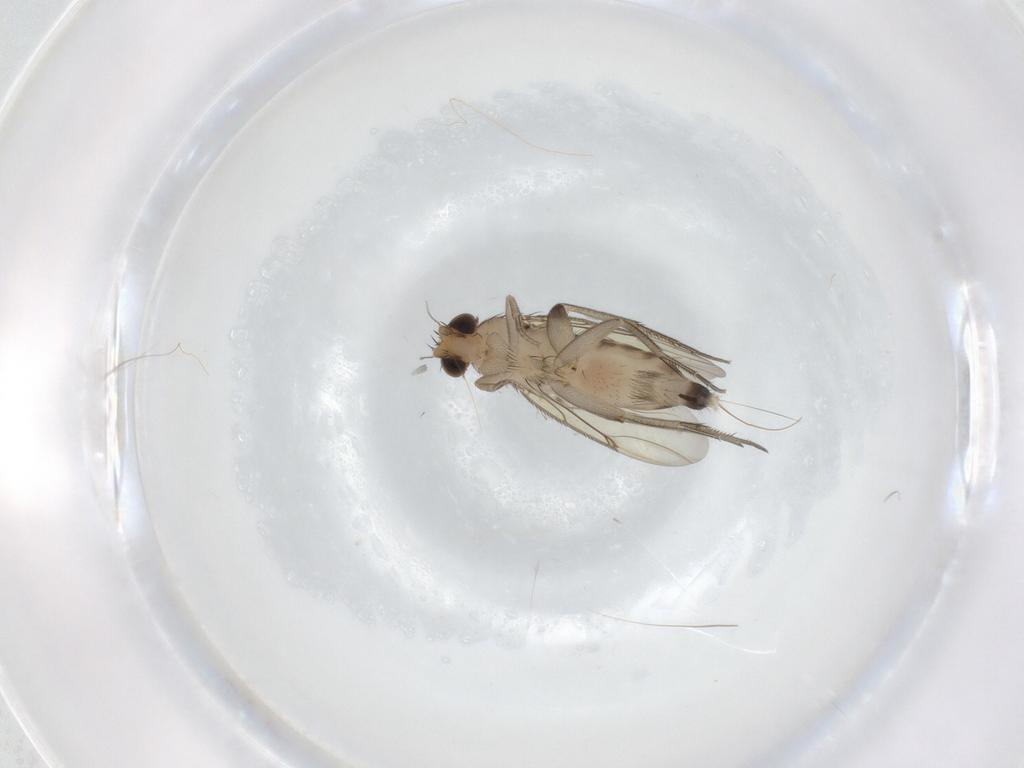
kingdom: Animalia
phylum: Arthropoda
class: Insecta
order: Diptera
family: Phoridae
